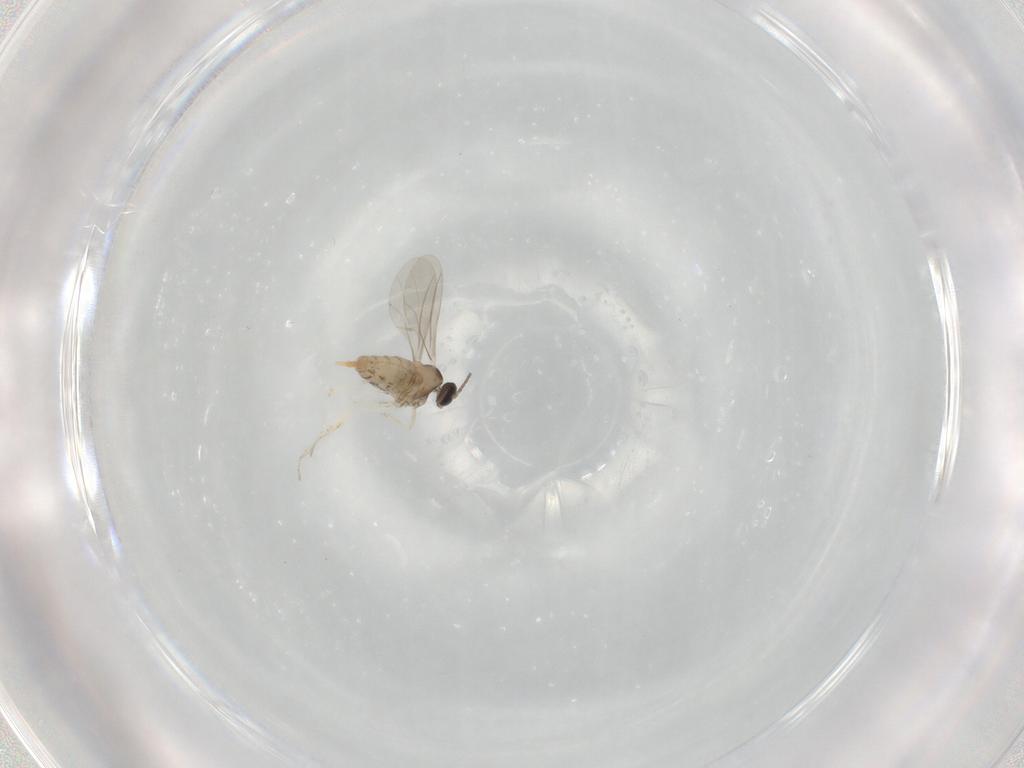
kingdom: Animalia
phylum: Arthropoda
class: Insecta
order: Diptera
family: Cecidomyiidae
